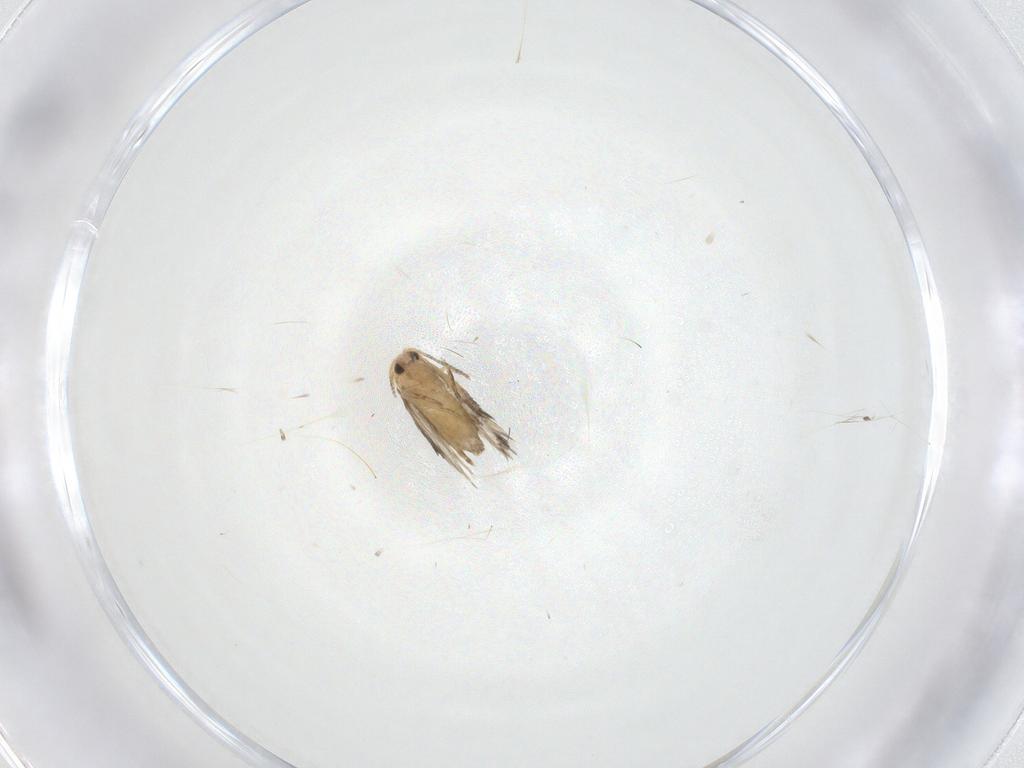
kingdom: Animalia
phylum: Arthropoda
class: Insecta
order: Lepidoptera
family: Nepticulidae
